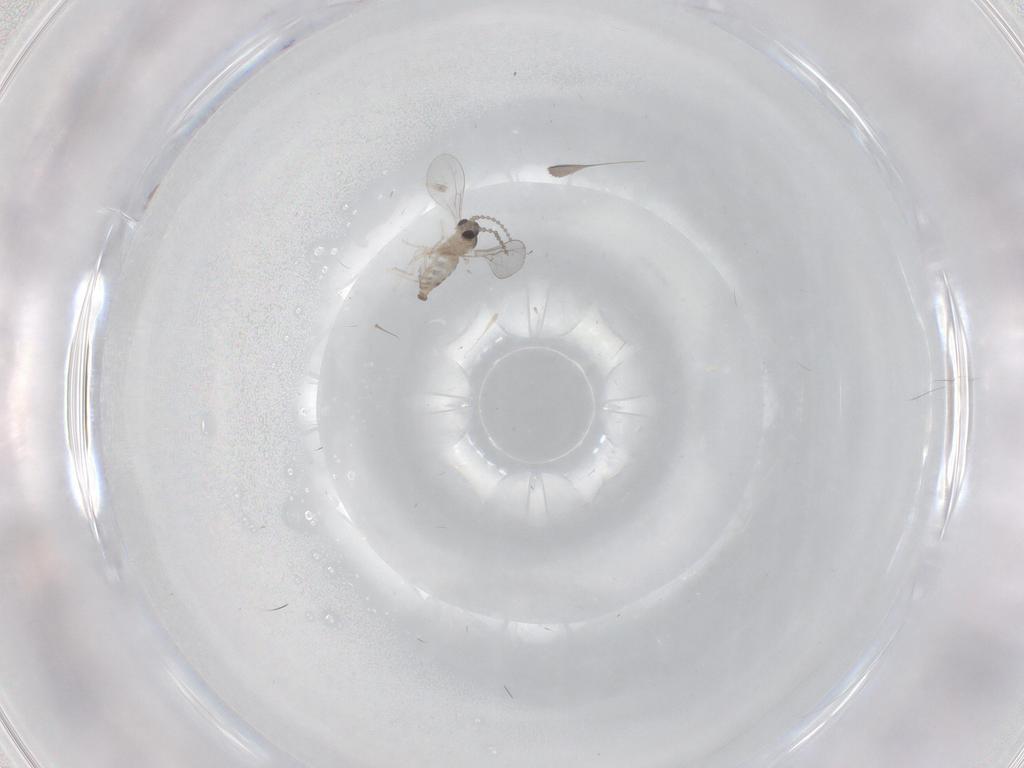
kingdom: Animalia
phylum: Arthropoda
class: Insecta
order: Diptera
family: Cecidomyiidae
